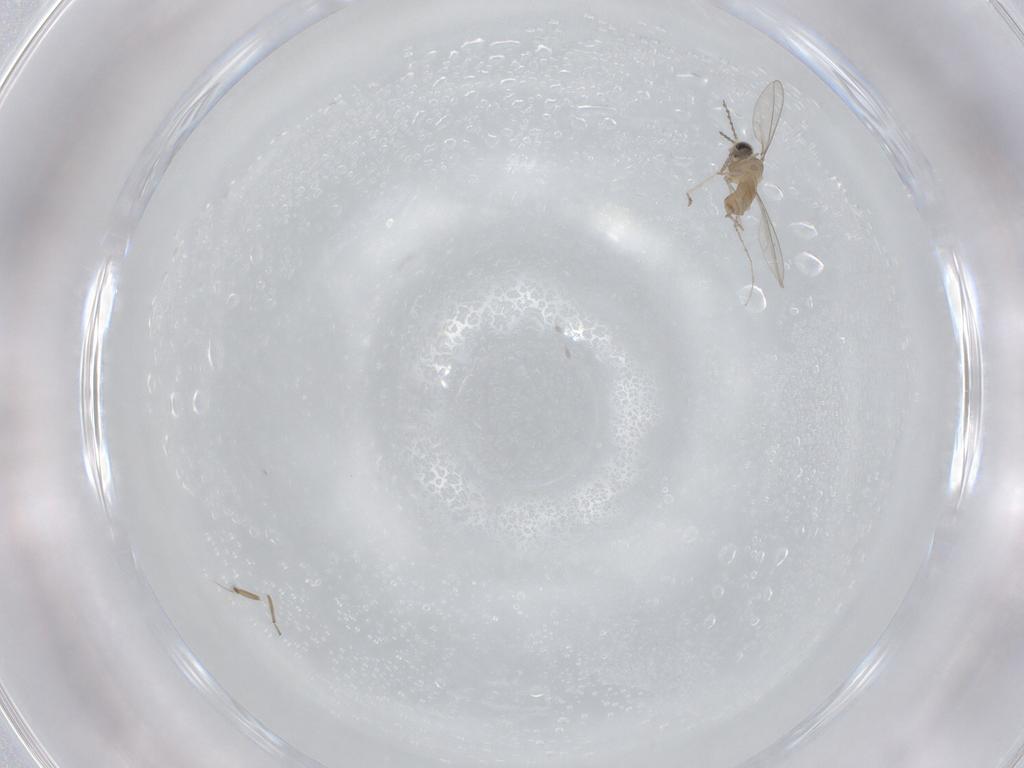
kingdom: Animalia
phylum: Arthropoda
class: Insecta
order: Diptera
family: Cecidomyiidae
